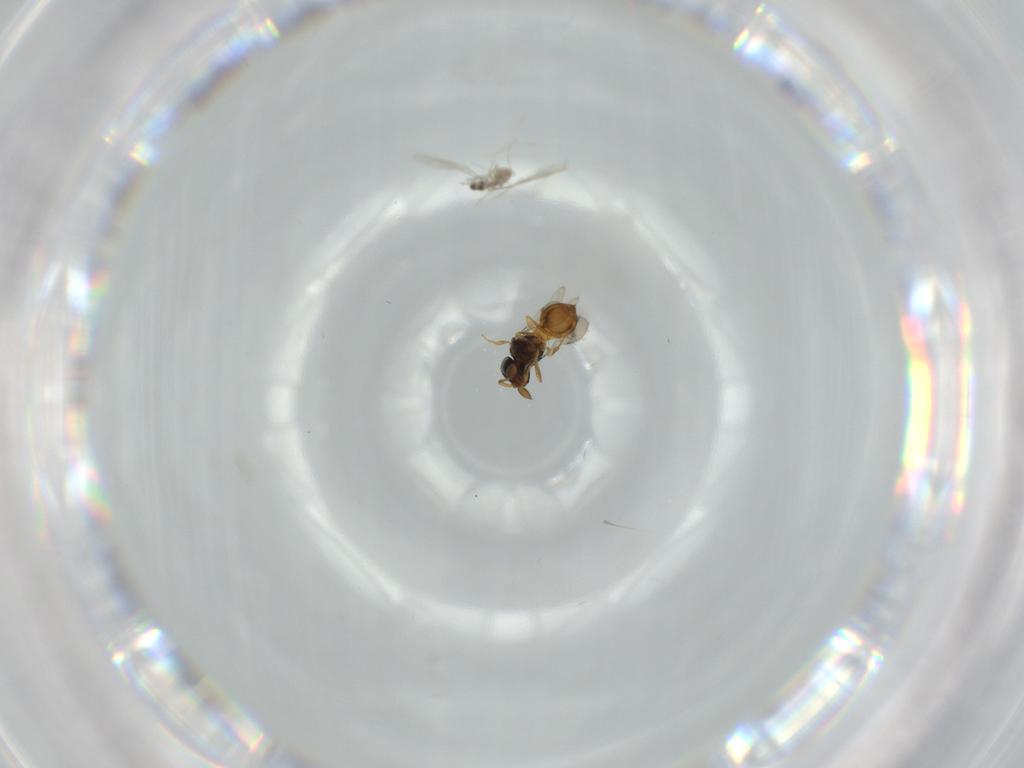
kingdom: Animalia
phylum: Arthropoda
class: Insecta
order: Hymenoptera
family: Scelionidae
